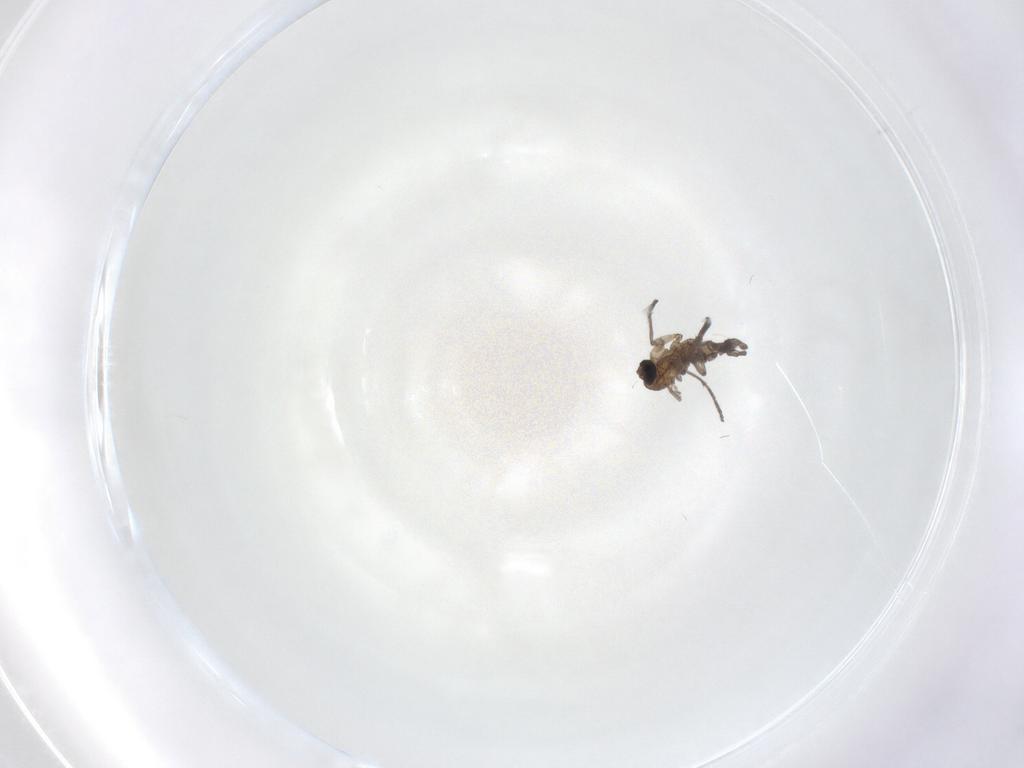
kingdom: Animalia
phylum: Arthropoda
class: Insecta
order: Diptera
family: Sciaridae
